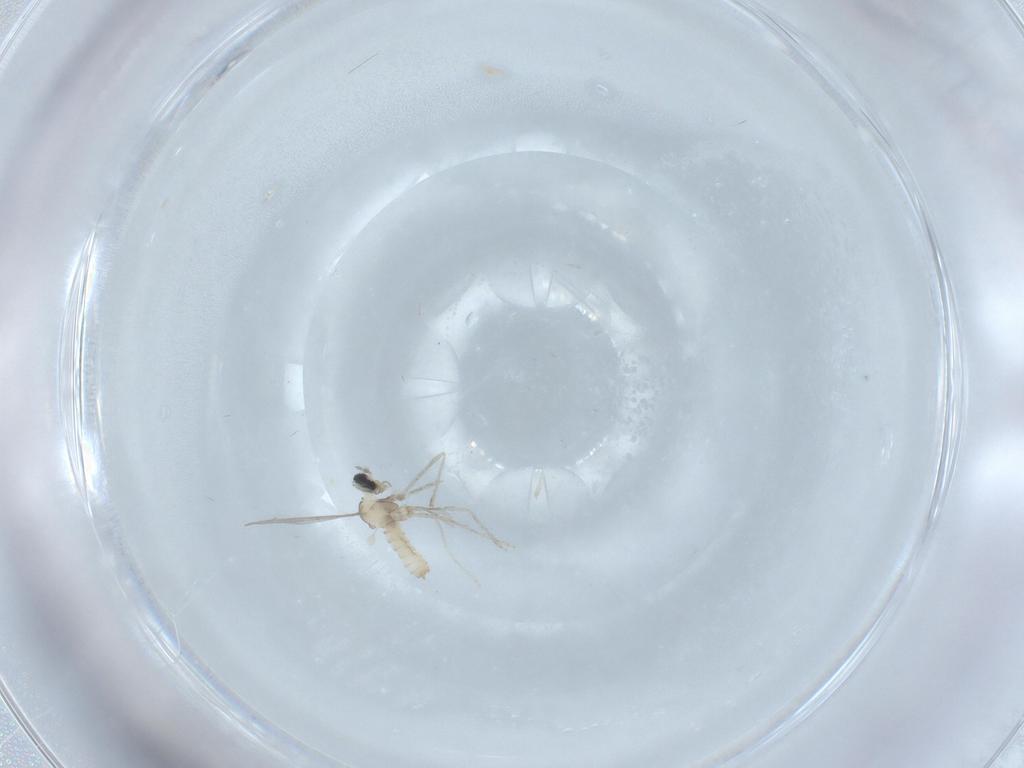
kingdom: Animalia
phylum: Arthropoda
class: Insecta
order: Diptera
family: Cecidomyiidae
